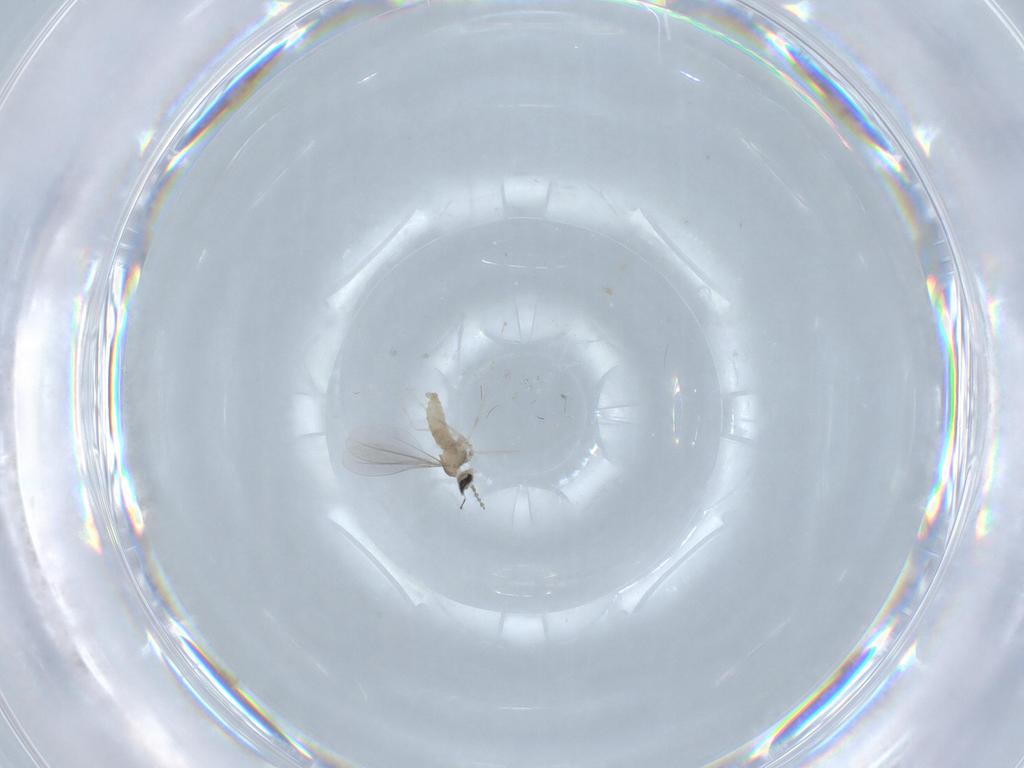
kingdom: Animalia
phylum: Arthropoda
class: Insecta
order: Diptera
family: Cecidomyiidae
